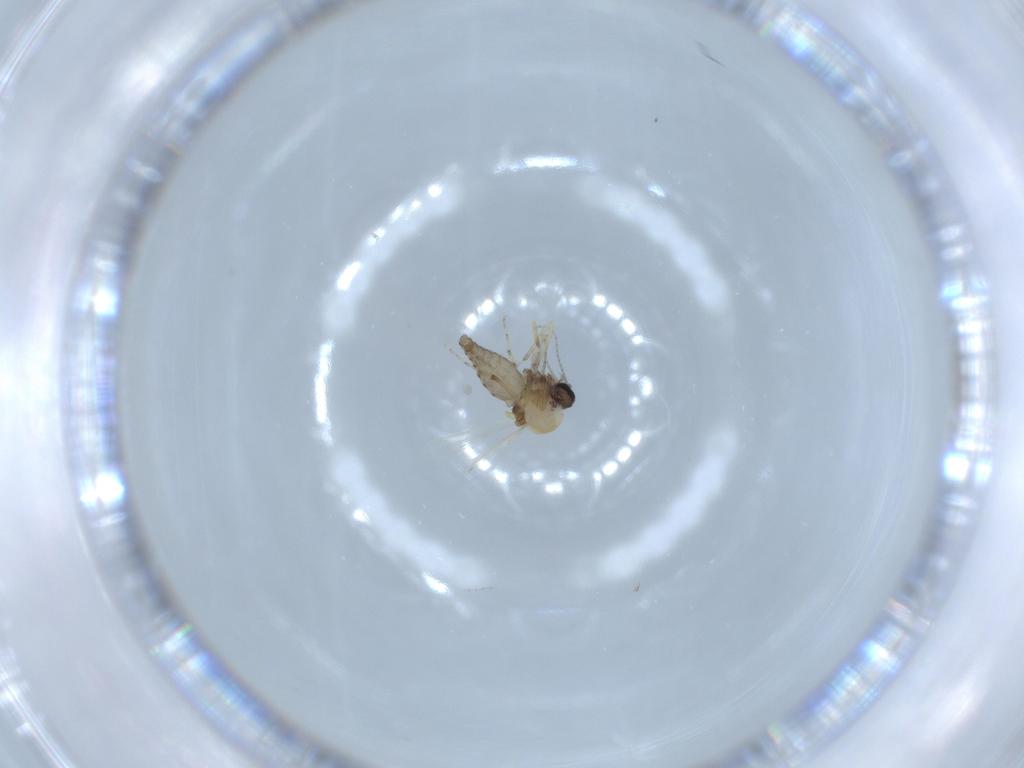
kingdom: Animalia
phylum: Arthropoda
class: Insecta
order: Diptera
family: Ceratopogonidae
